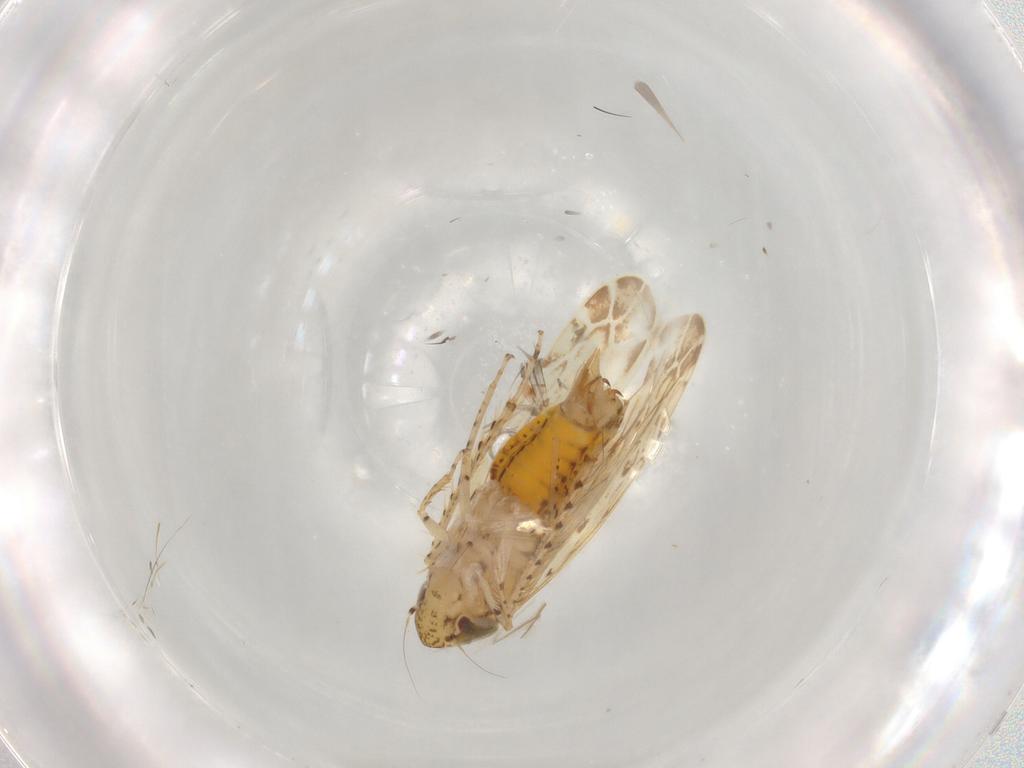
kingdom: Animalia
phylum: Arthropoda
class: Insecta
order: Hemiptera
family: Cicadellidae
